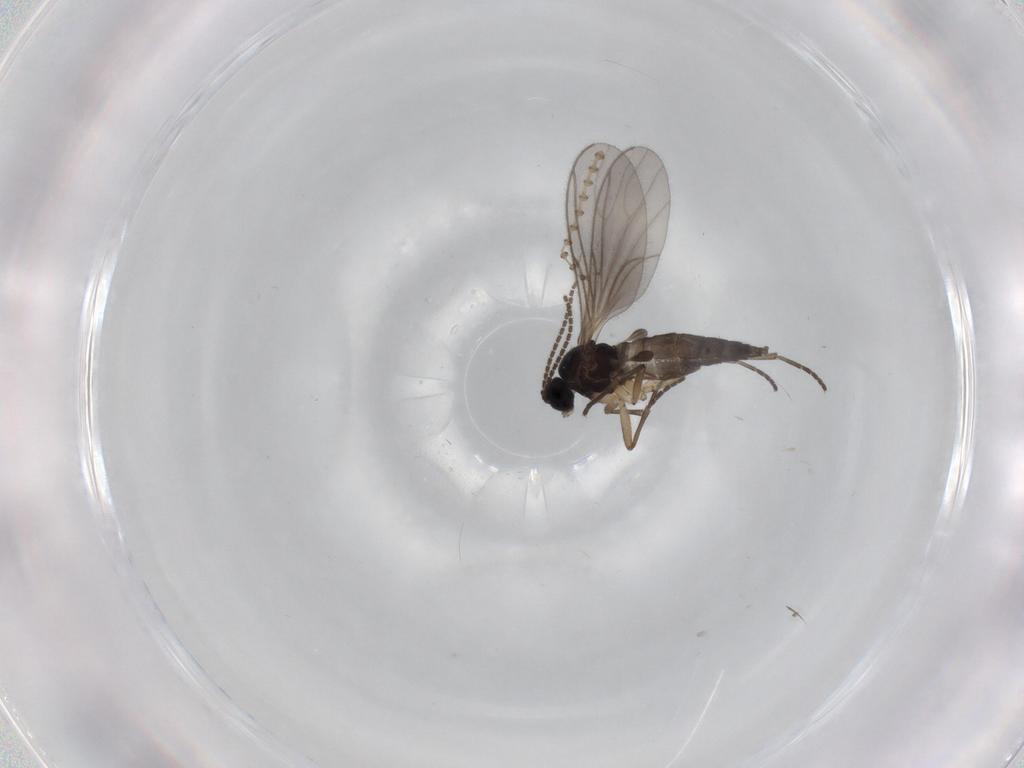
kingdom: Animalia
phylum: Arthropoda
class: Insecta
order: Diptera
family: Sciaridae
